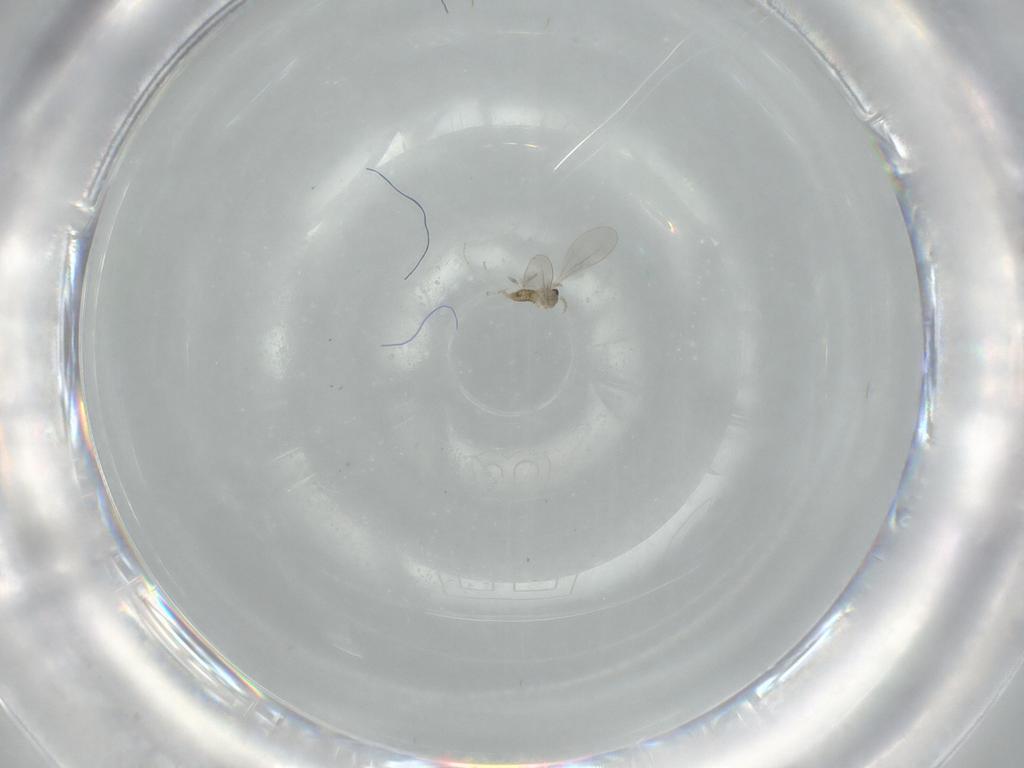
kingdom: Animalia
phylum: Arthropoda
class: Insecta
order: Diptera
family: Cecidomyiidae
